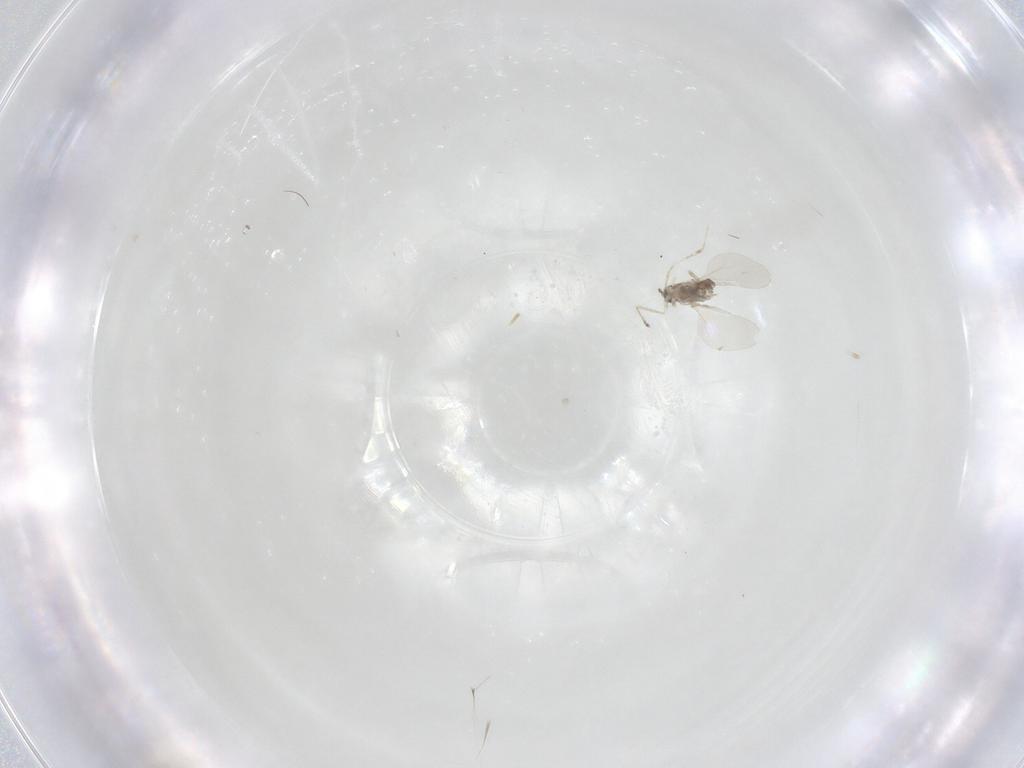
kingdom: Animalia
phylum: Arthropoda
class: Insecta
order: Diptera
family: Cecidomyiidae
